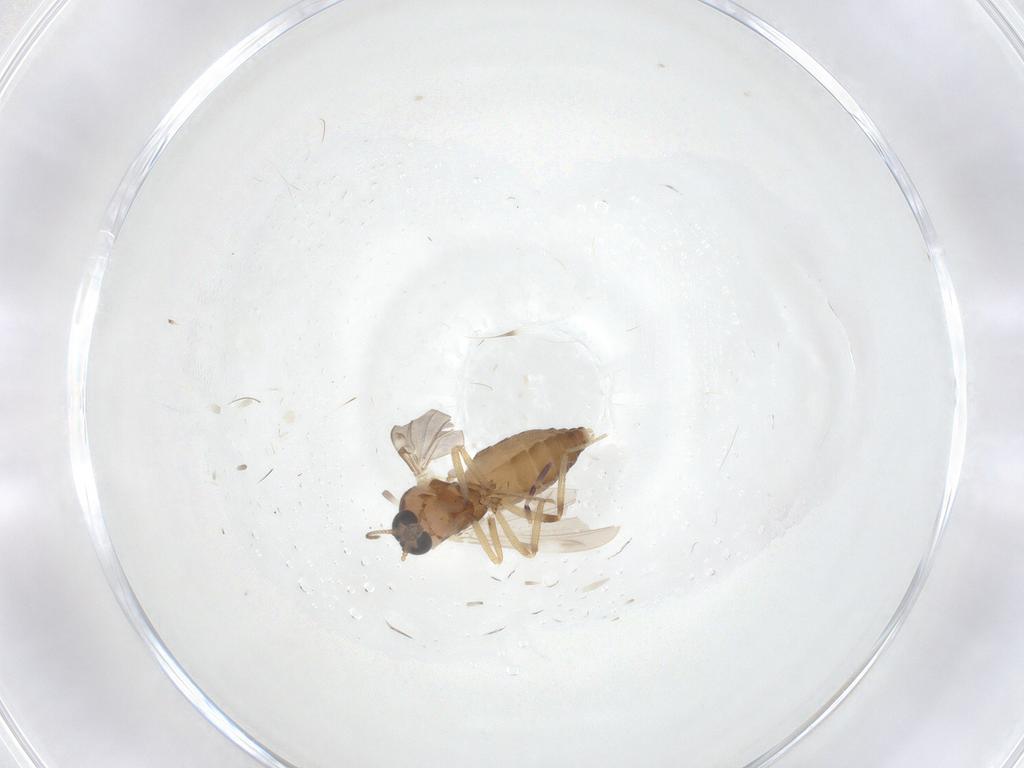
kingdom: Animalia
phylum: Arthropoda
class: Insecta
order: Diptera
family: Ceratopogonidae
